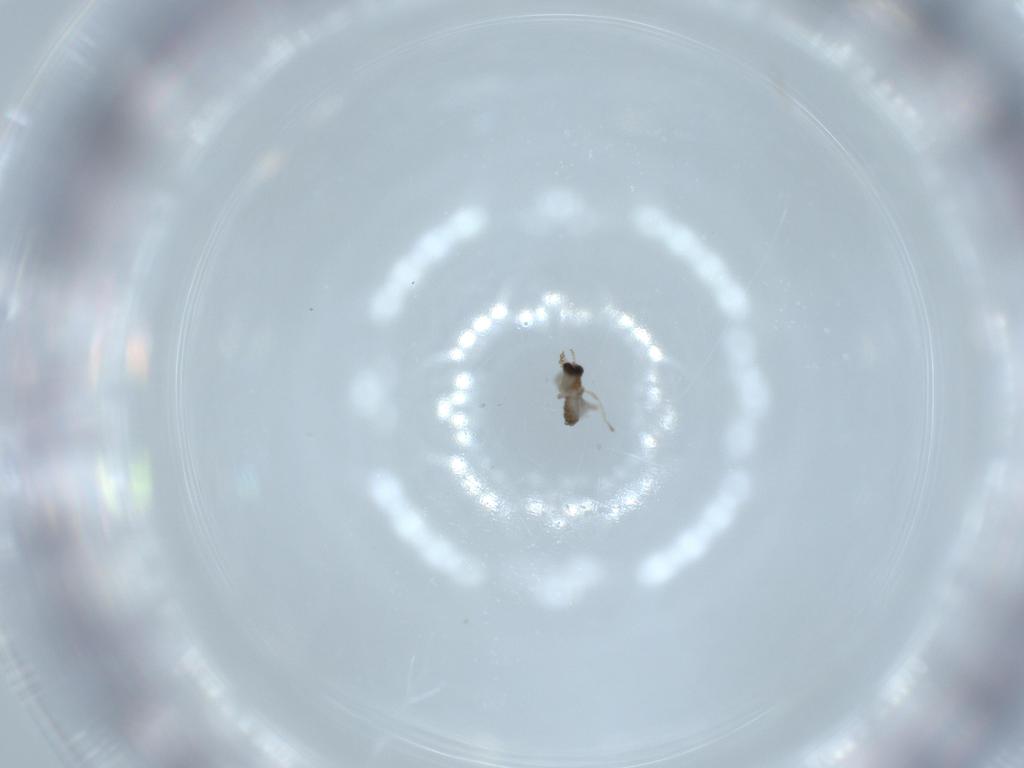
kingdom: Animalia
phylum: Arthropoda
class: Insecta
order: Diptera
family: Cecidomyiidae
